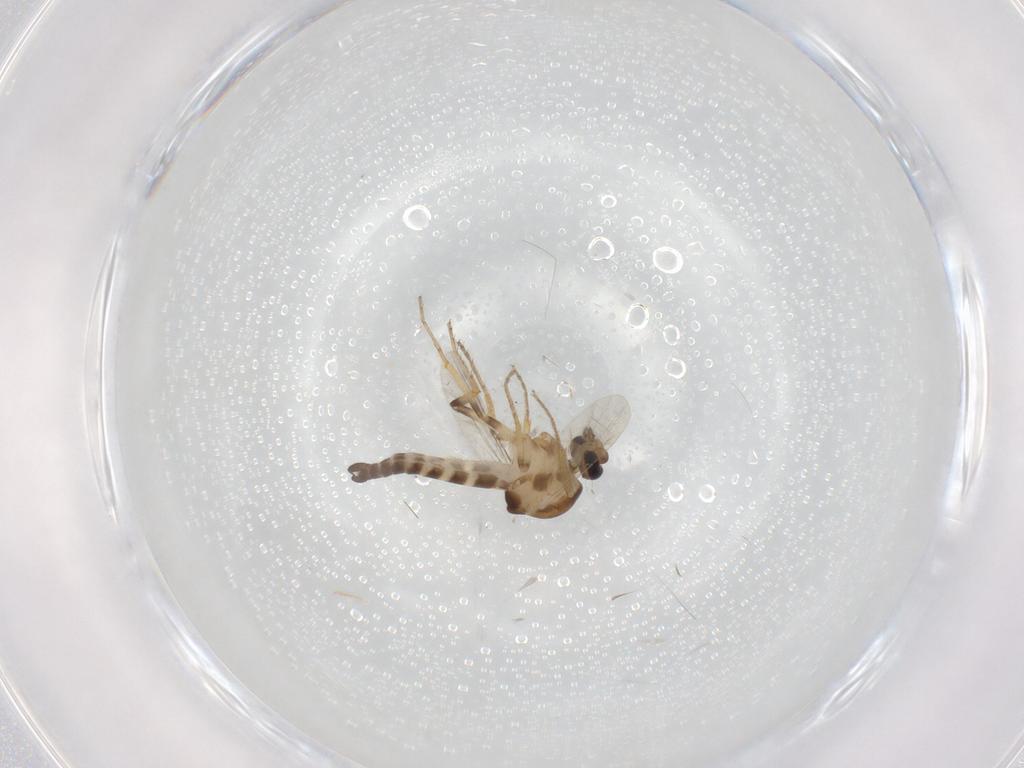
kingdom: Animalia
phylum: Arthropoda
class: Insecta
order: Diptera
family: Ceratopogonidae
